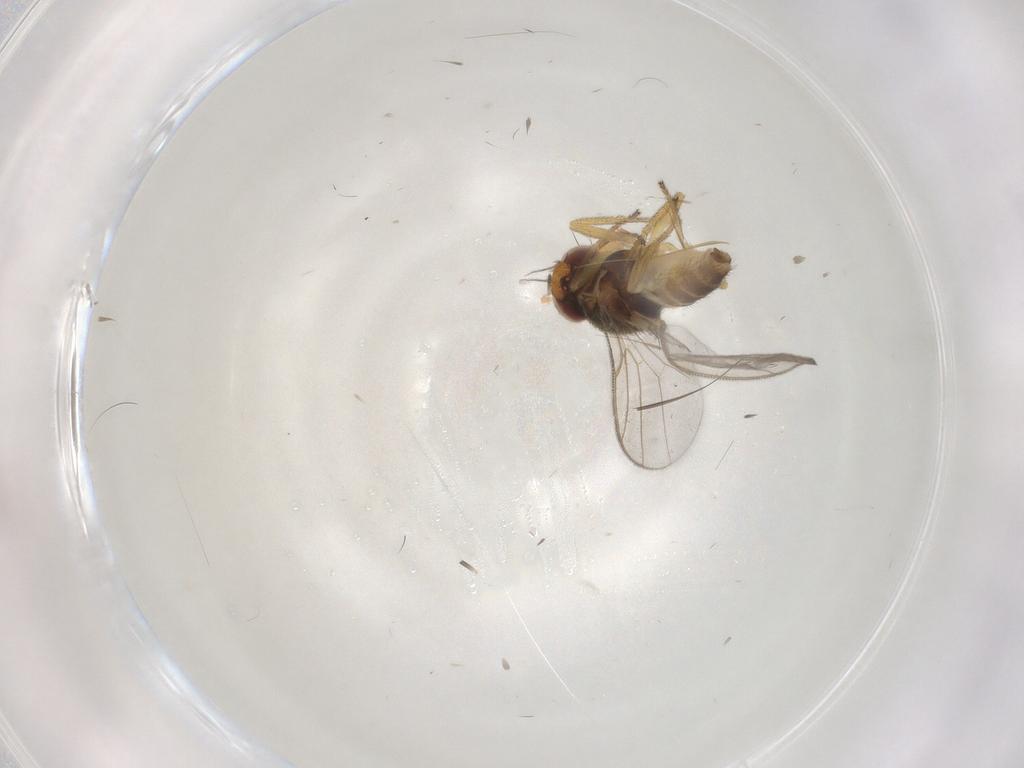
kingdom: Animalia
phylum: Arthropoda
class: Insecta
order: Diptera
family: Chloropidae
